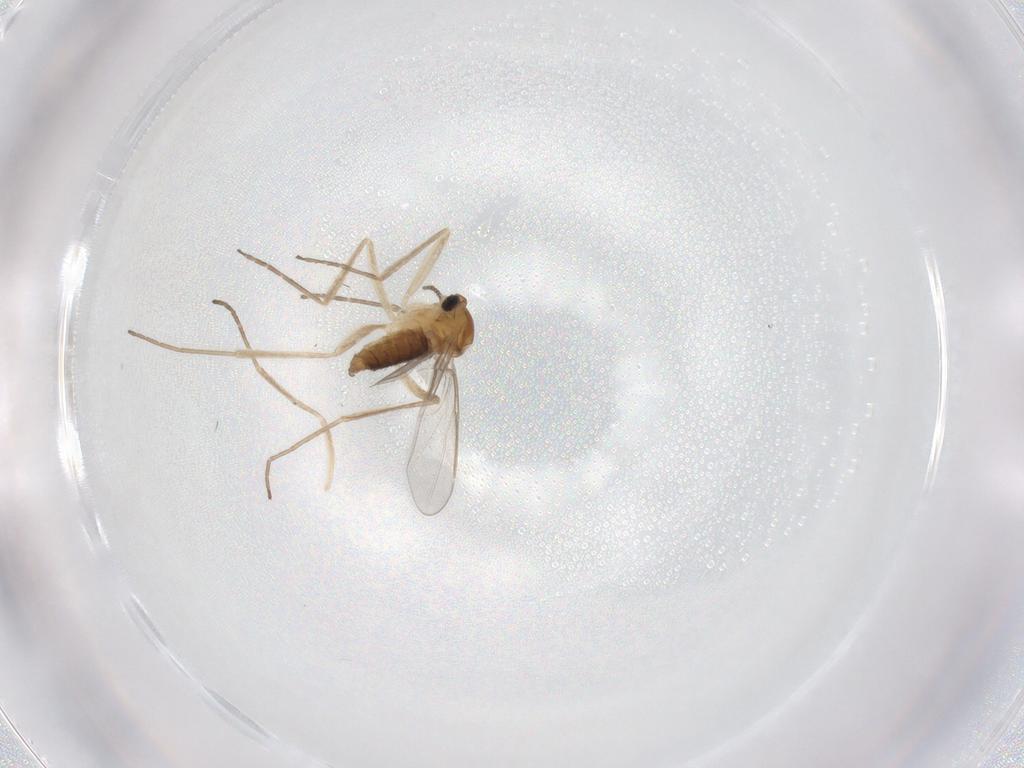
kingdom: Animalia
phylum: Arthropoda
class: Insecta
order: Diptera
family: Cecidomyiidae
